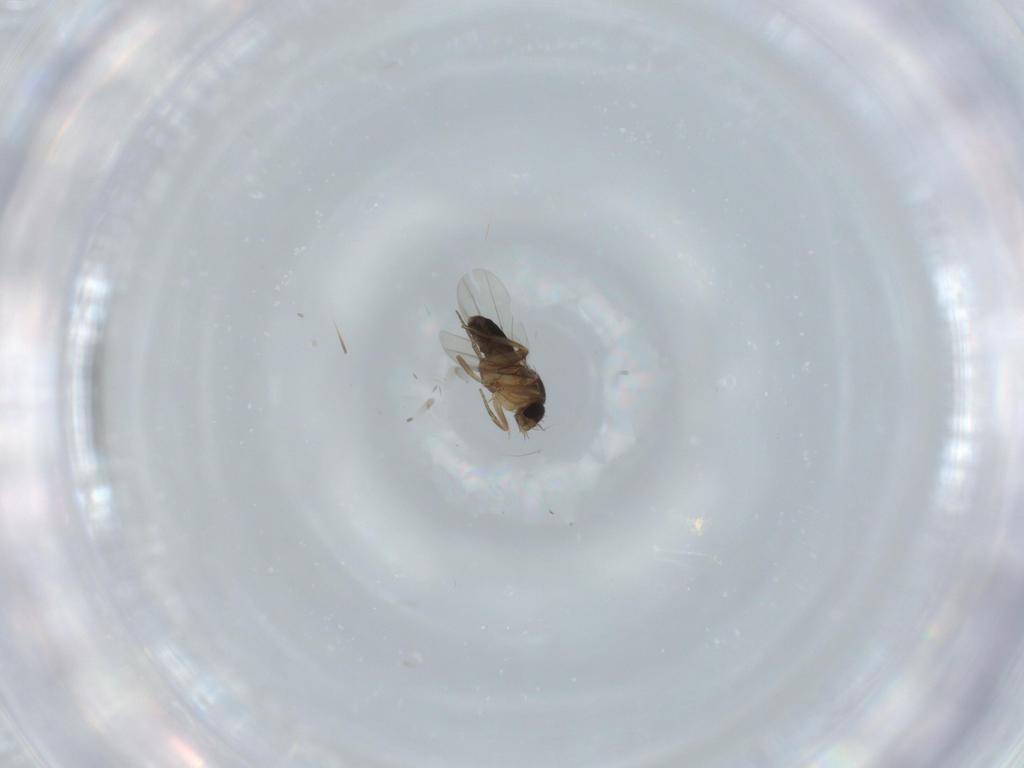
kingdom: Animalia
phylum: Arthropoda
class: Insecta
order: Diptera
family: Phoridae
